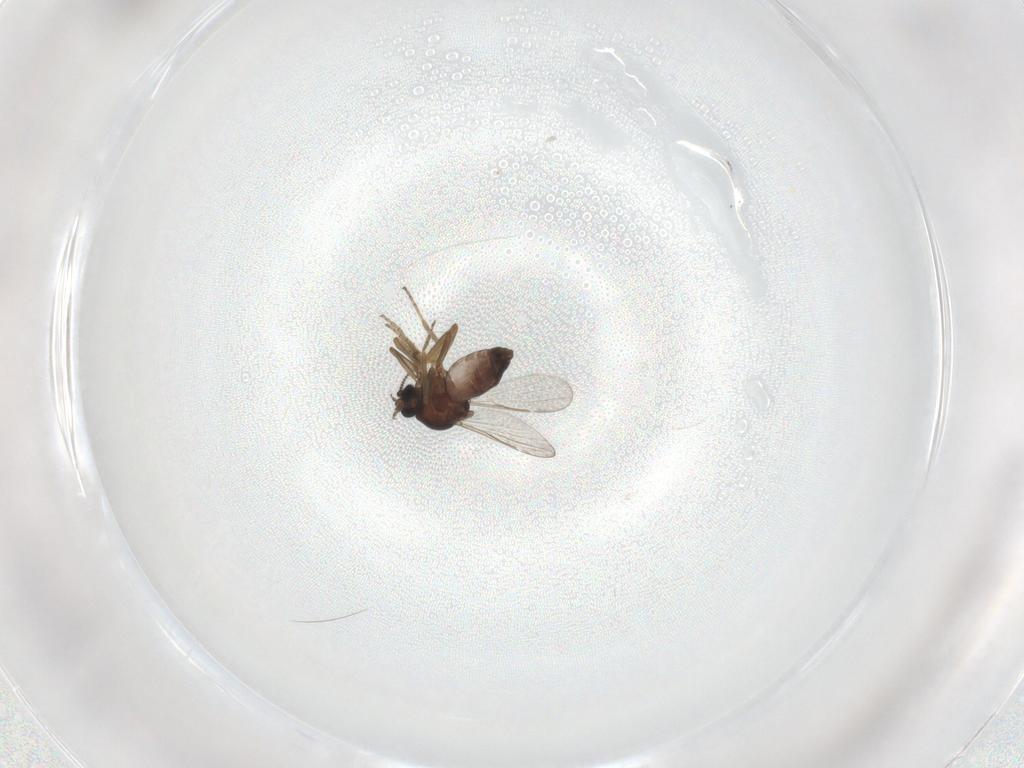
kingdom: Animalia
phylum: Arthropoda
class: Insecta
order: Diptera
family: Ceratopogonidae
